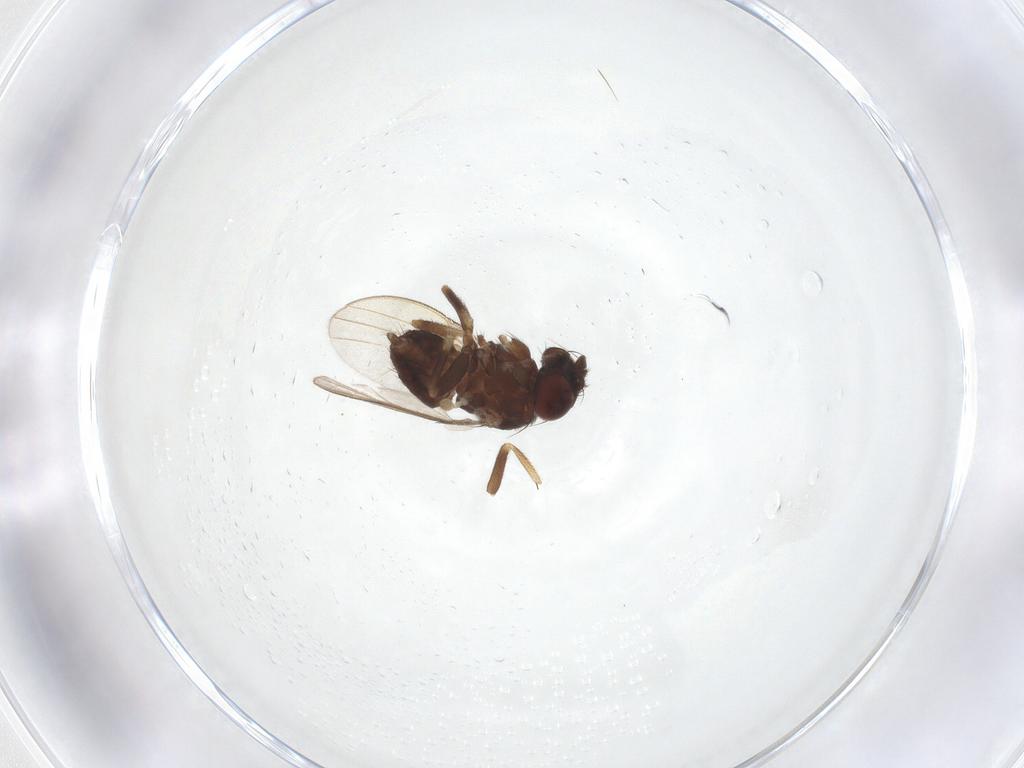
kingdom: Animalia
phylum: Arthropoda
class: Insecta
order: Diptera
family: Milichiidae
